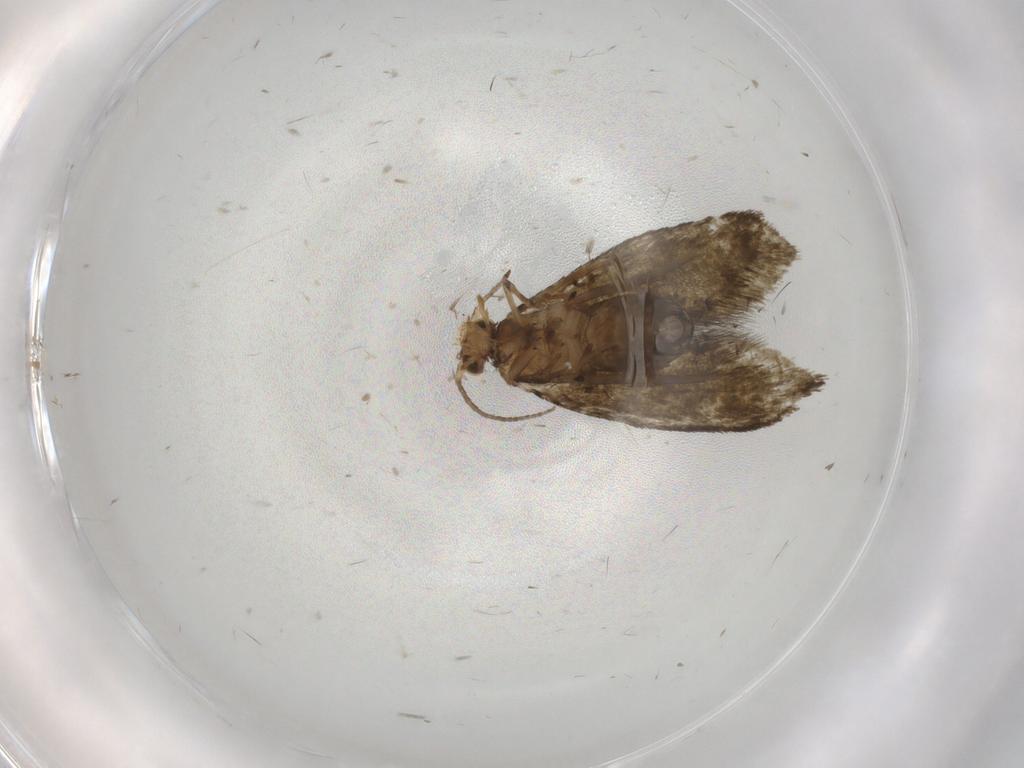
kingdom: Animalia
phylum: Arthropoda
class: Insecta
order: Lepidoptera
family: Tineidae
